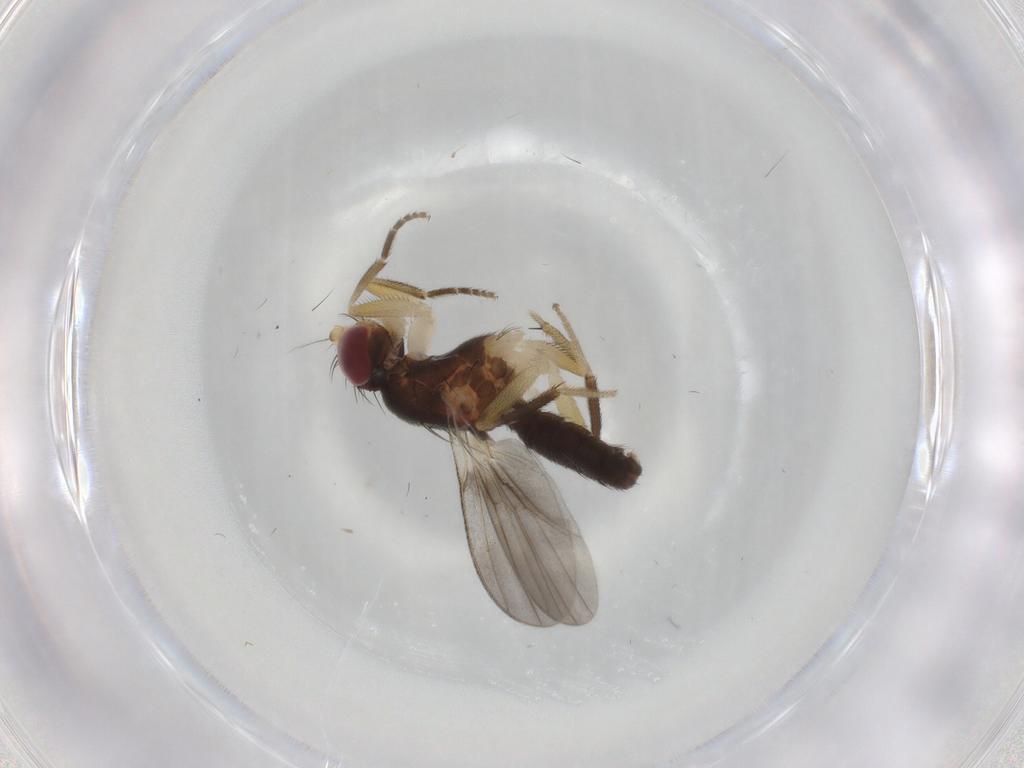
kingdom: Animalia
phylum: Arthropoda
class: Insecta
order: Diptera
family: Clusiidae
